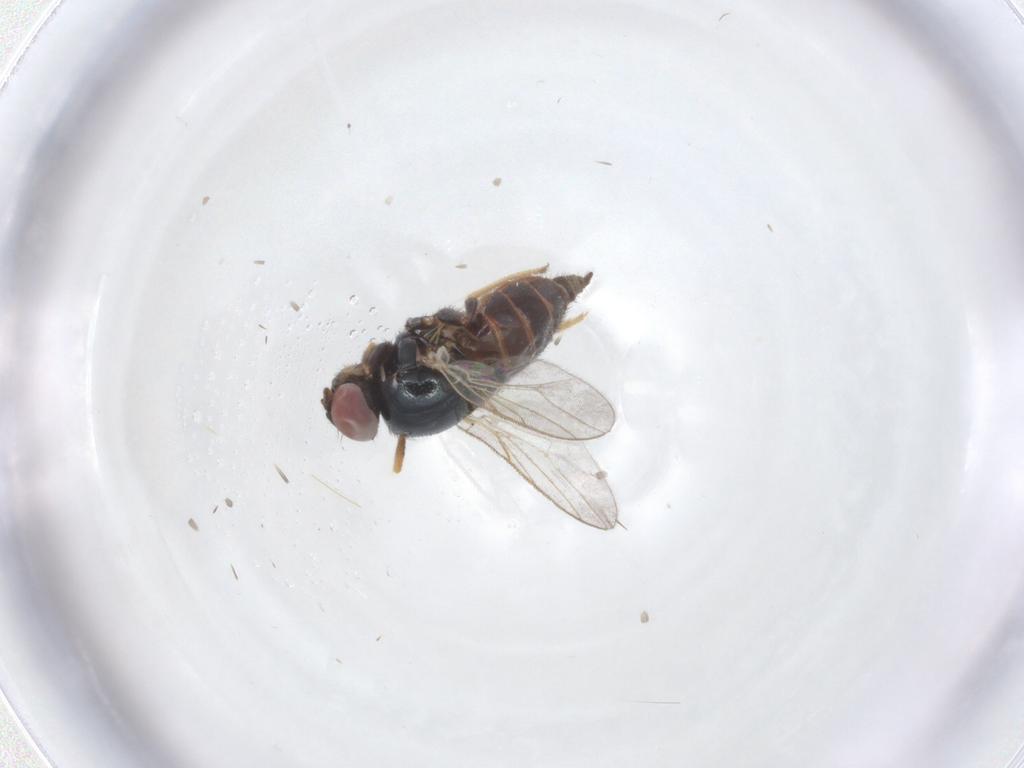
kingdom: Animalia
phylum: Arthropoda
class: Insecta
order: Diptera
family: Chloropidae
